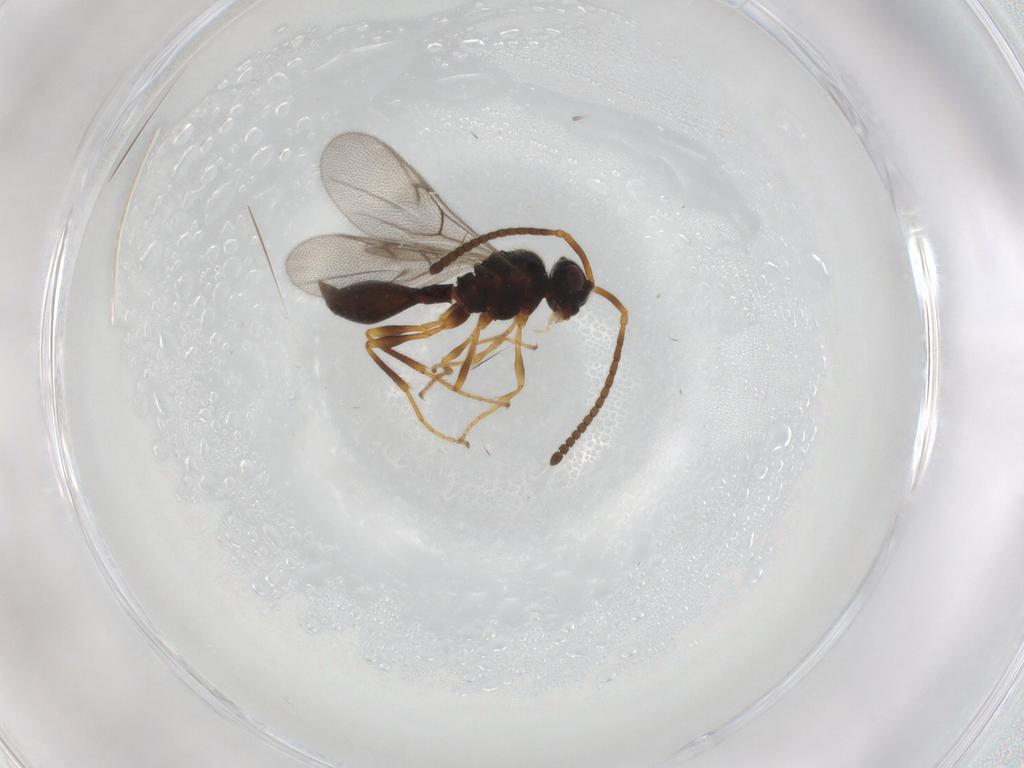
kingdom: Animalia
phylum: Arthropoda
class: Insecta
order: Hymenoptera
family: Diapriidae
